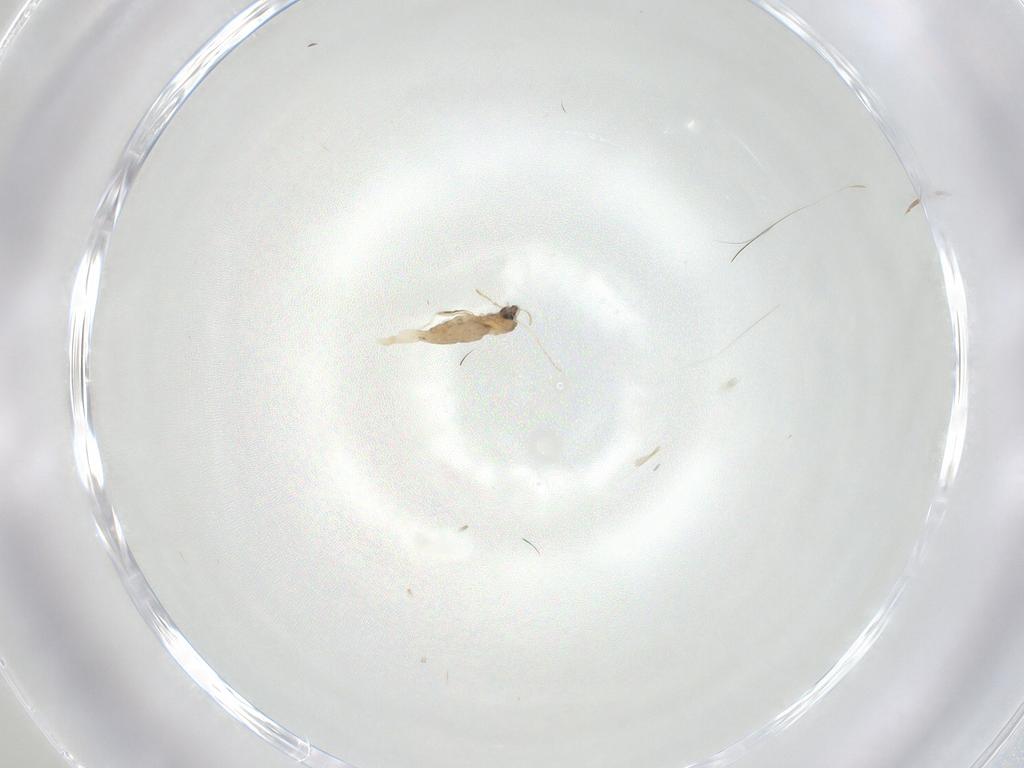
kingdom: Animalia
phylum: Arthropoda
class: Insecta
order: Diptera
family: Cecidomyiidae
